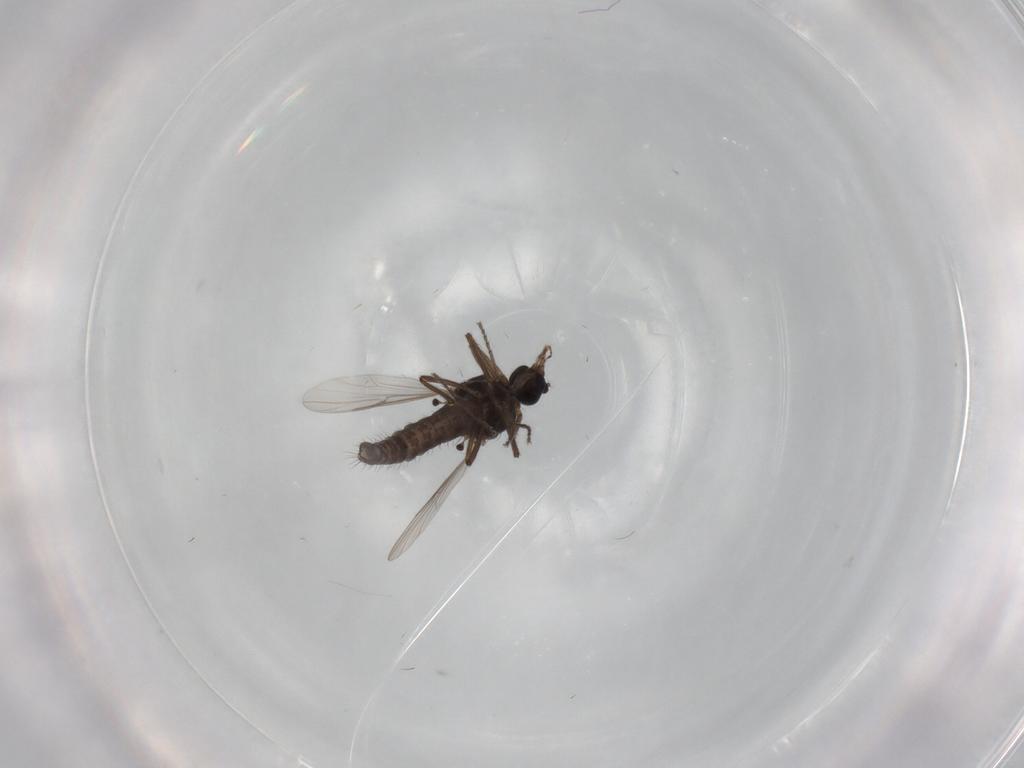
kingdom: Animalia
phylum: Arthropoda
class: Insecta
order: Diptera
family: Ceratopogonidae
